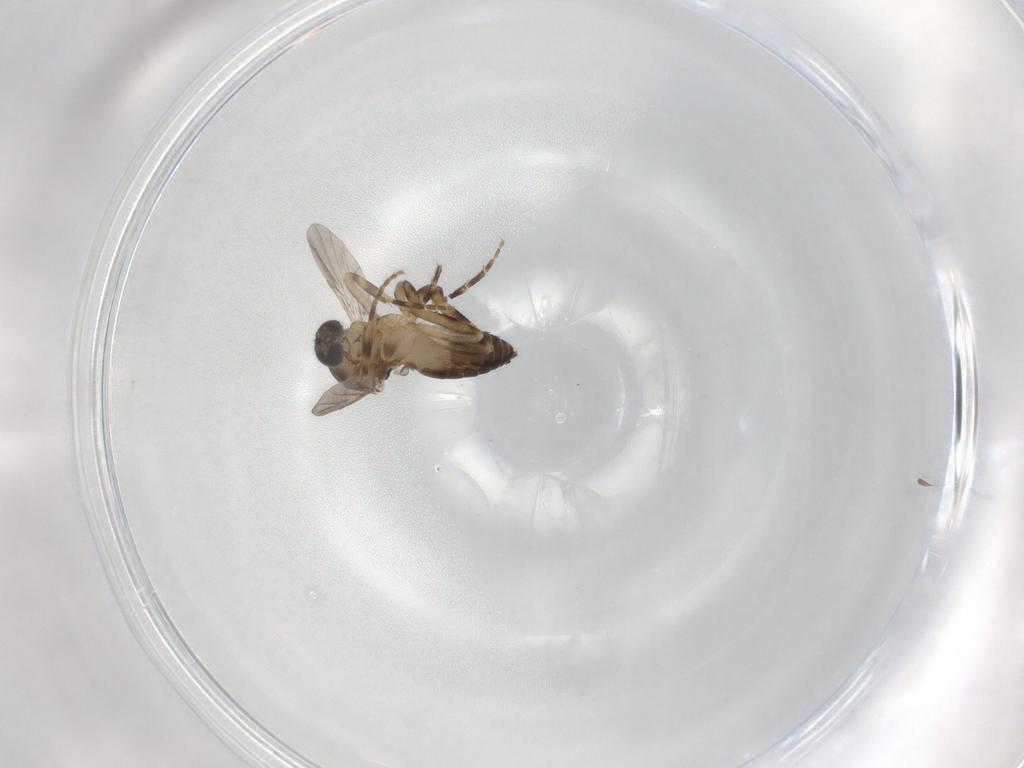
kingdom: Animalia
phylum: Arthropoda
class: Insecta
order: Diptera
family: Ceratopogonidae
